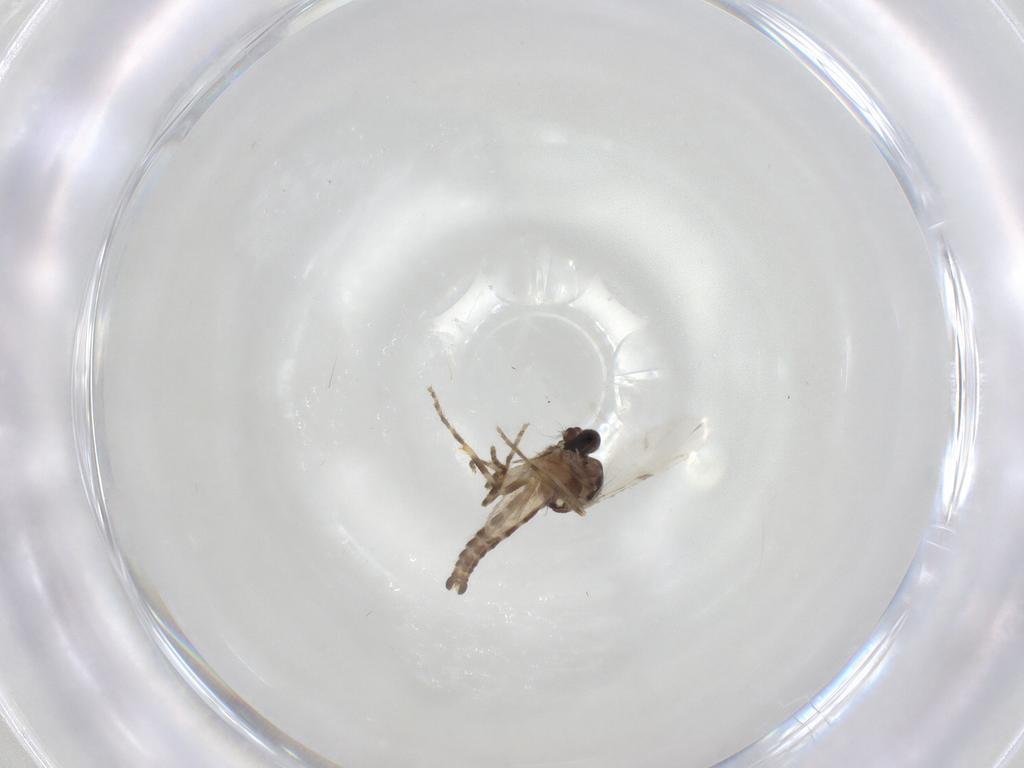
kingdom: Animalia
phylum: Arthropoda
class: Insecta
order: Diptera
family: Ceratopogonidae
